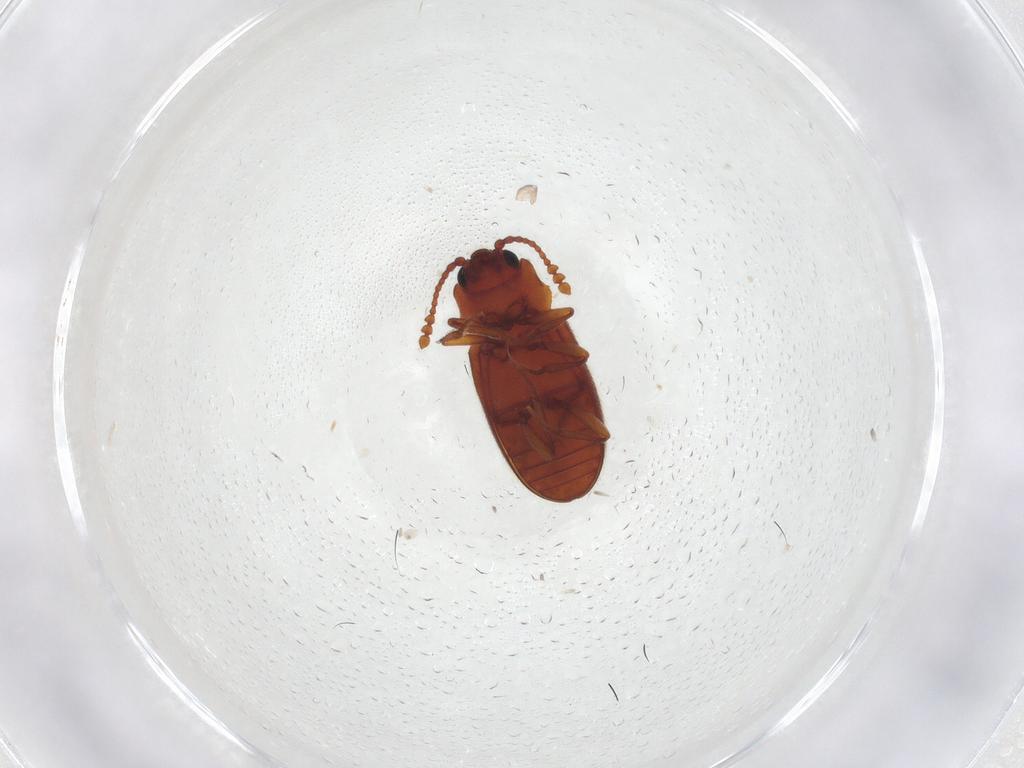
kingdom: Animalia
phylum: Arthropoda
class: Insecta
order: Coleoptera
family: Cryptophagidae
